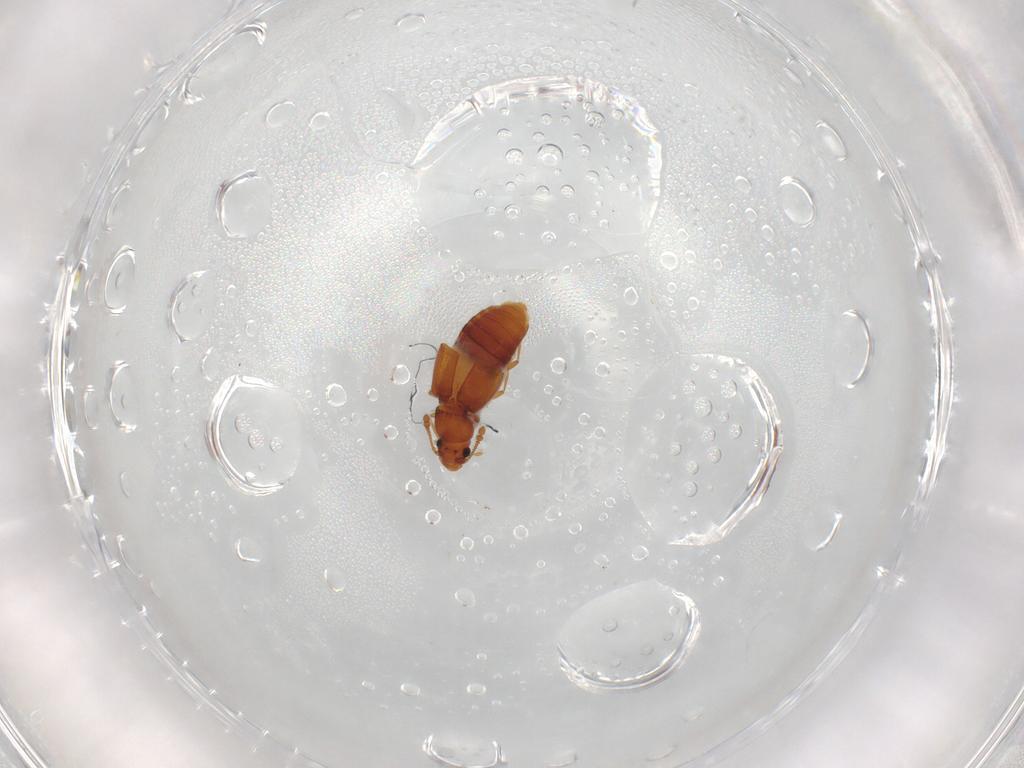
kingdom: Animalia
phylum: Arthropoda
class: Insecta
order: Coleoptera
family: Staphylinidae
